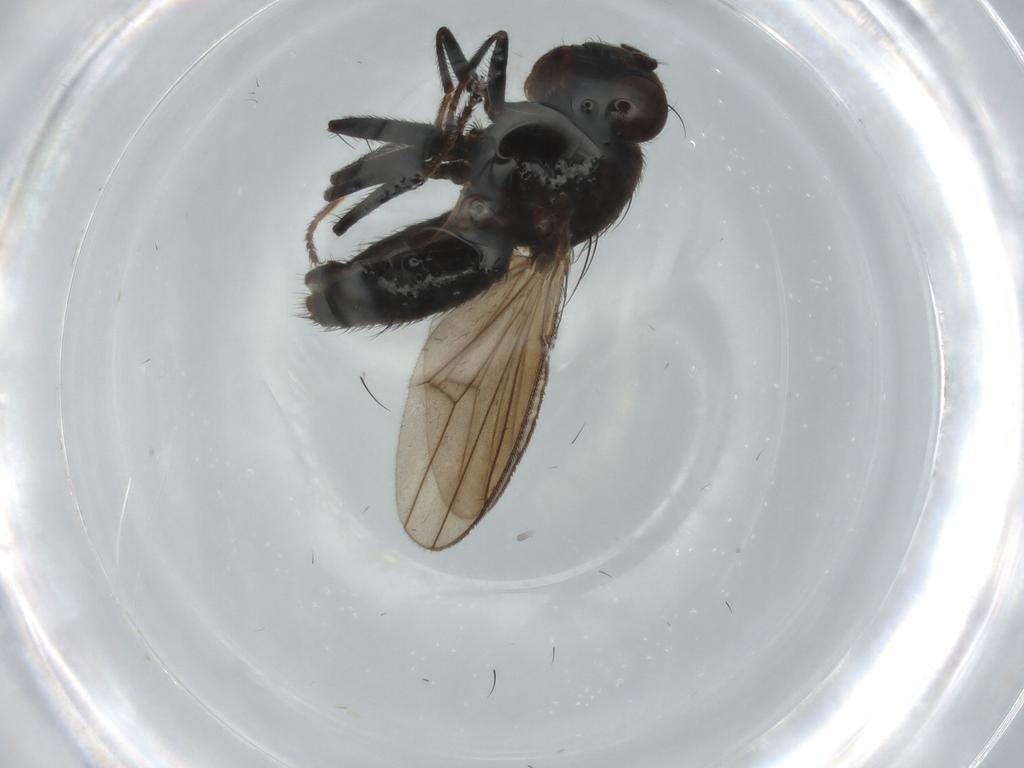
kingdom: Animalia
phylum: Arthropoda
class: Insecta
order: Diptera
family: Ephydridae
